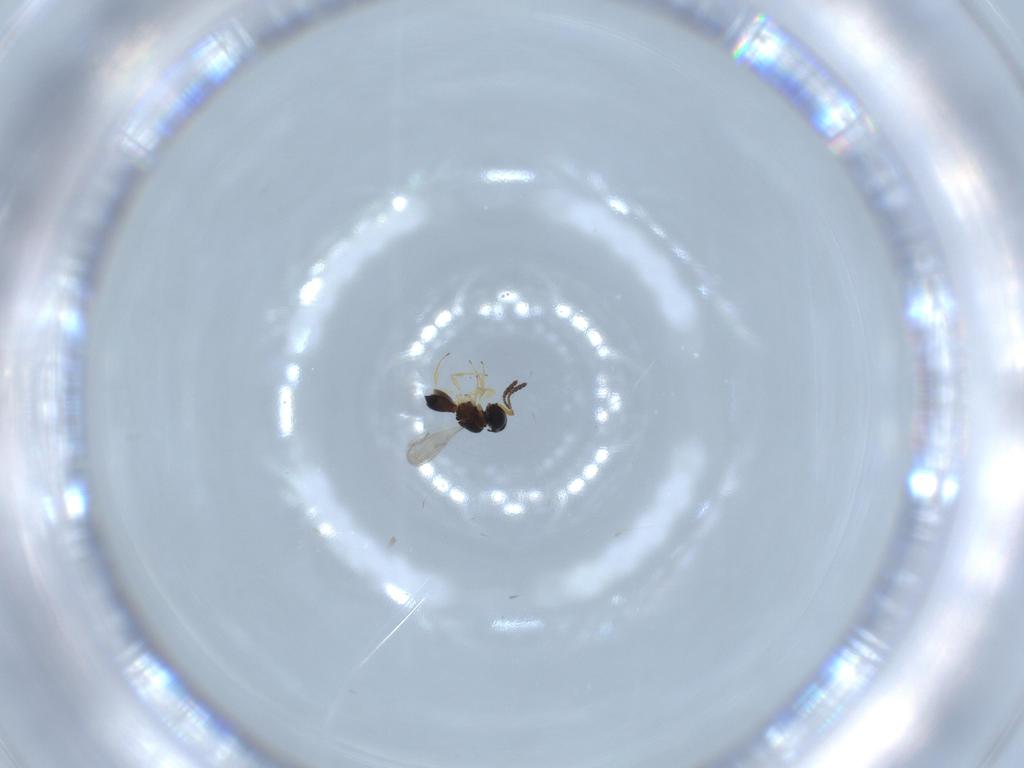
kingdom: Animalia
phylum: Arthropoda
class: Insecta
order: Hymenoptera
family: Scelionidae
